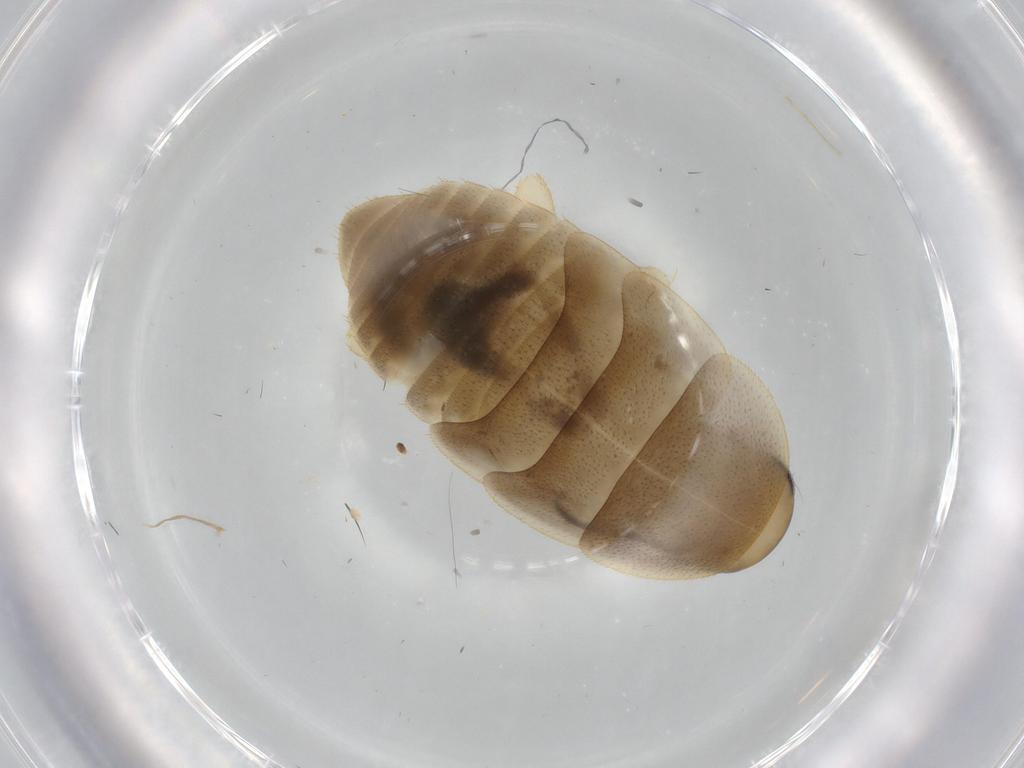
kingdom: Animalia
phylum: Arthropoda
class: Insecta
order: Blattodea
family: Ectobiidae
